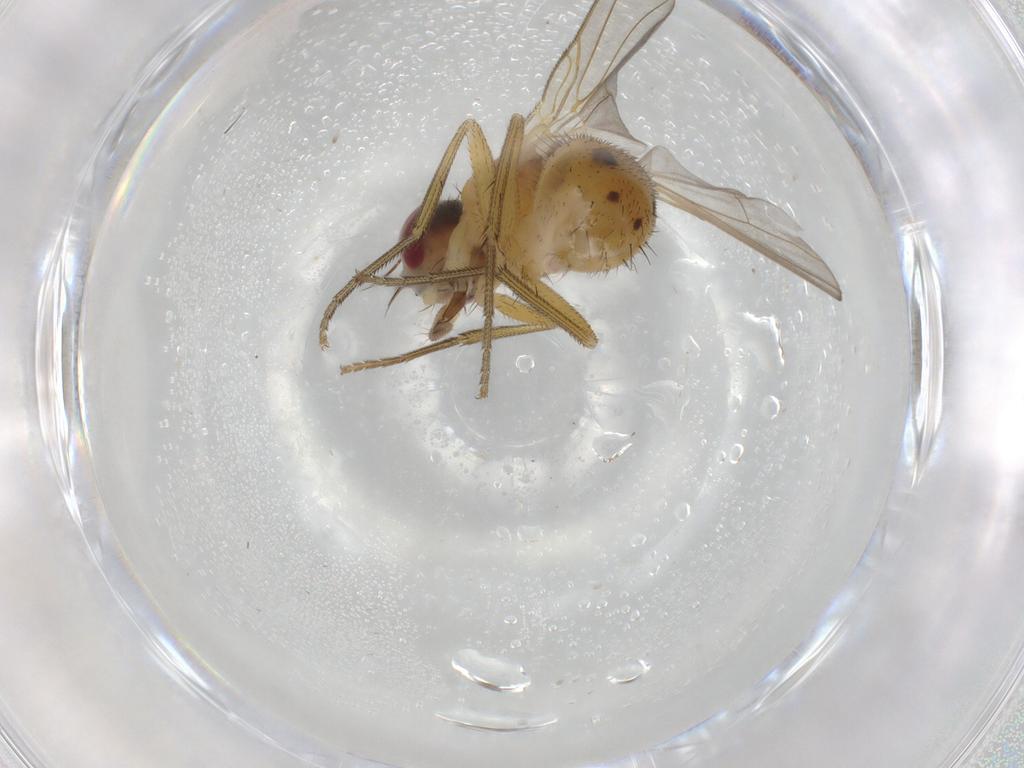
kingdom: Animalia
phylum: Arthropoda
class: Insecta
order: Diptera
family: Muscidae
